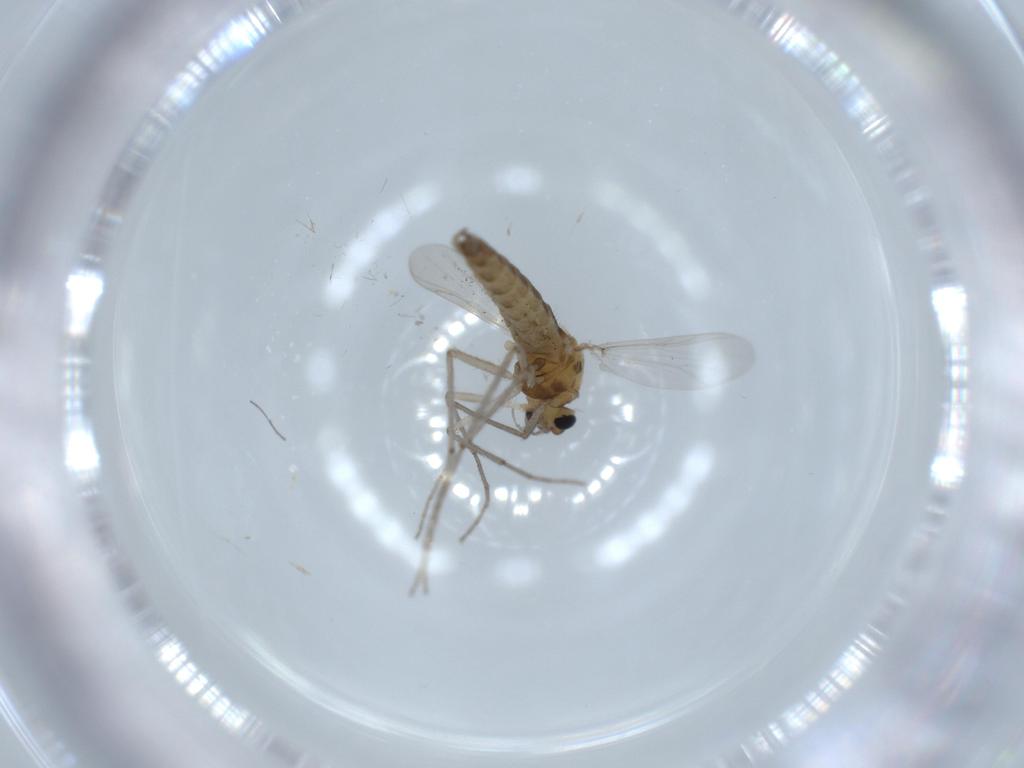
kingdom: Animalia
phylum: Arthropoda
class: Insecta
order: Diptera
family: Chironomidae
